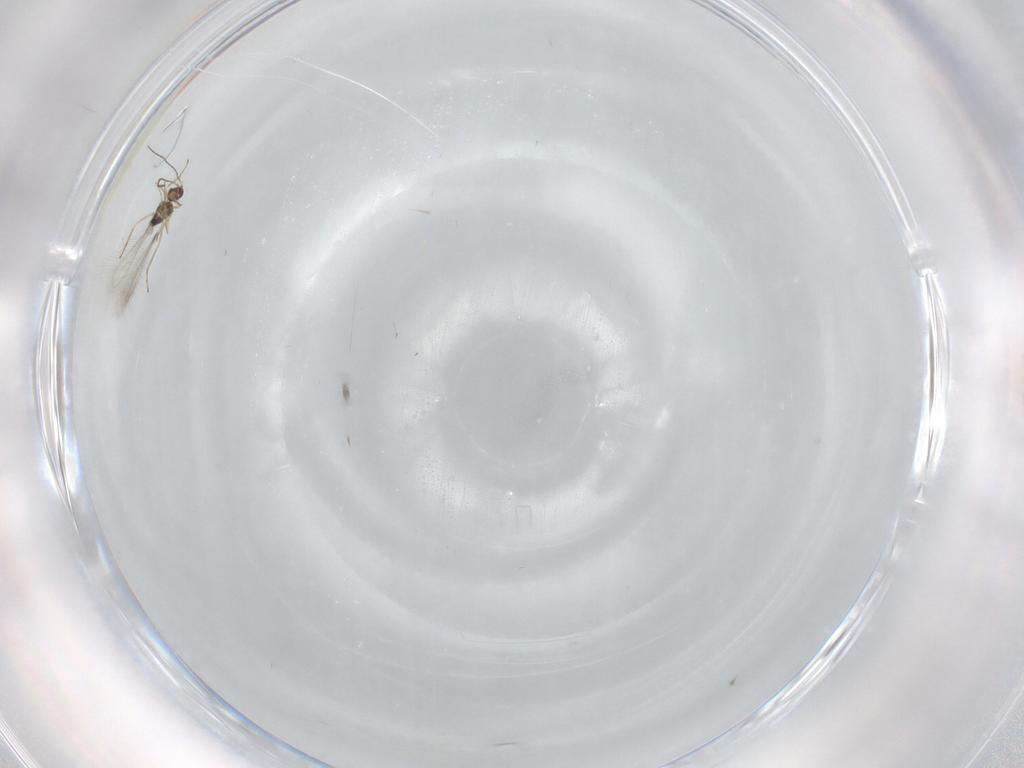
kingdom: Animalia
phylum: Arthropoda
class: Insecta
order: Hymenoptera
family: Mymaridae
